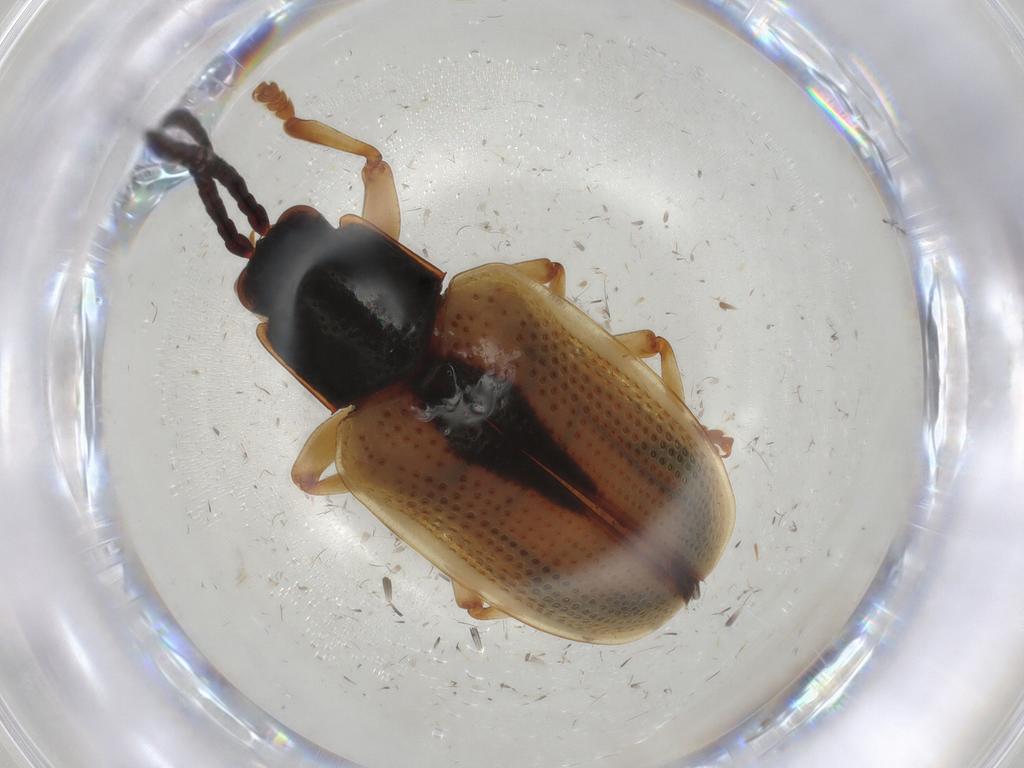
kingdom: Animalia
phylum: Arthropoda
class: Insecta
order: Coleoptera
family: Chrysomelidae
